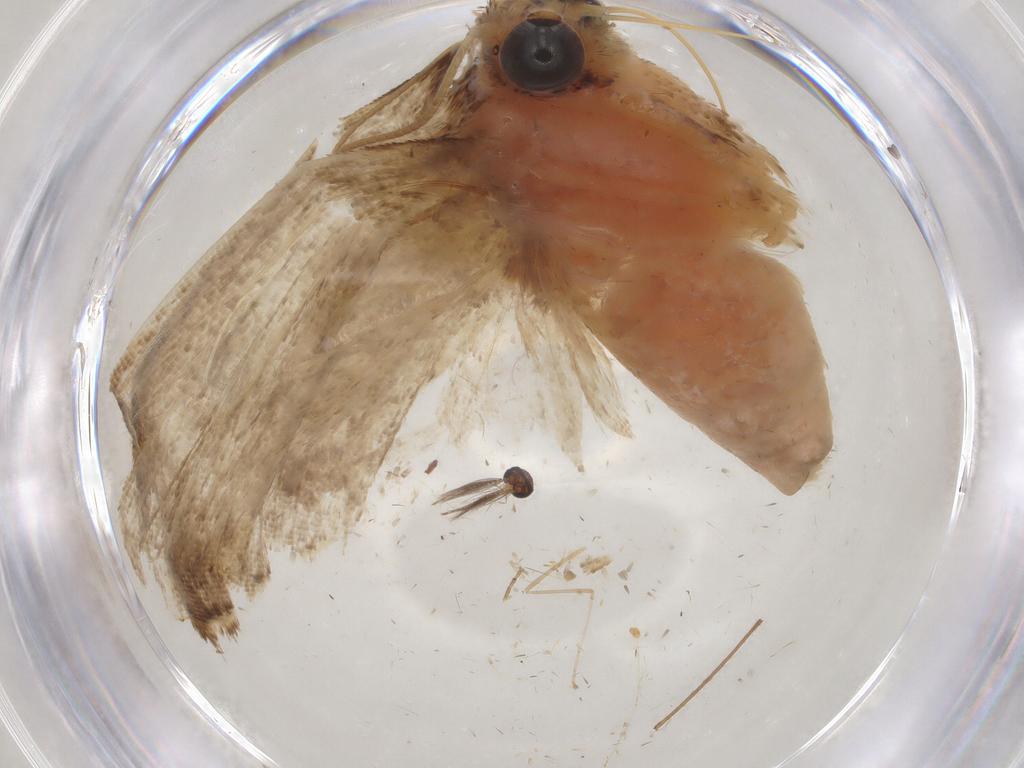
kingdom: Animalia
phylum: Arthropoda
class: Insecta
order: Lepidoptera
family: Crambidae
